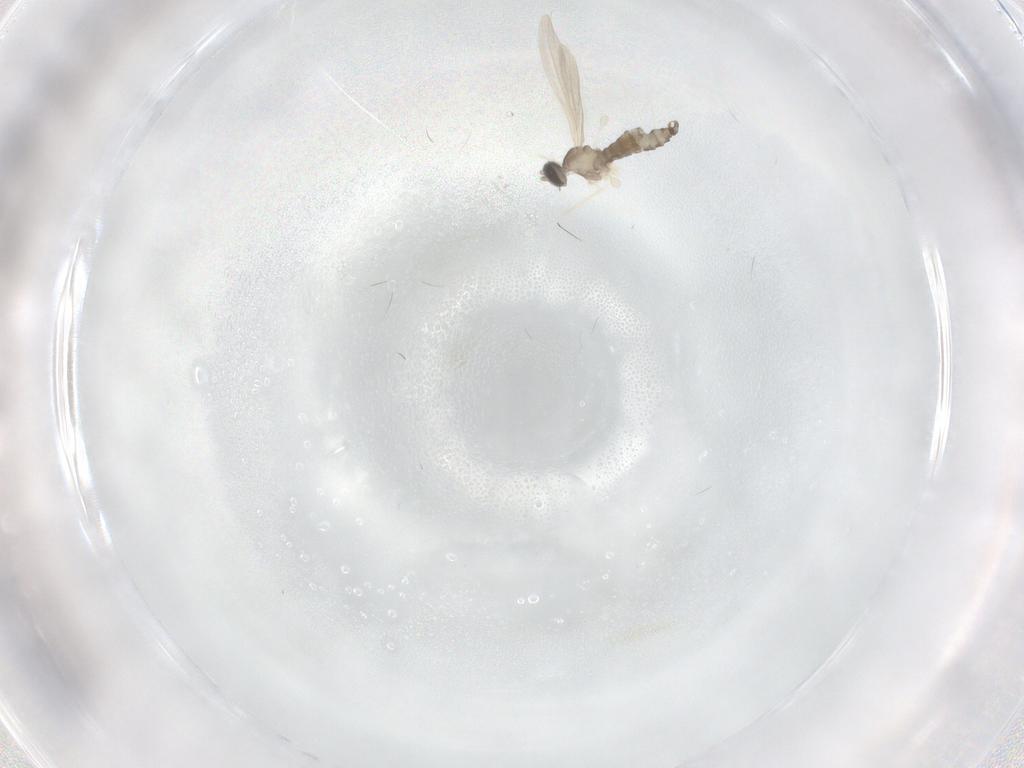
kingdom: Animalia
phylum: Arthropoda
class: Insecta
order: Diptera
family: Cecidomyiidae
